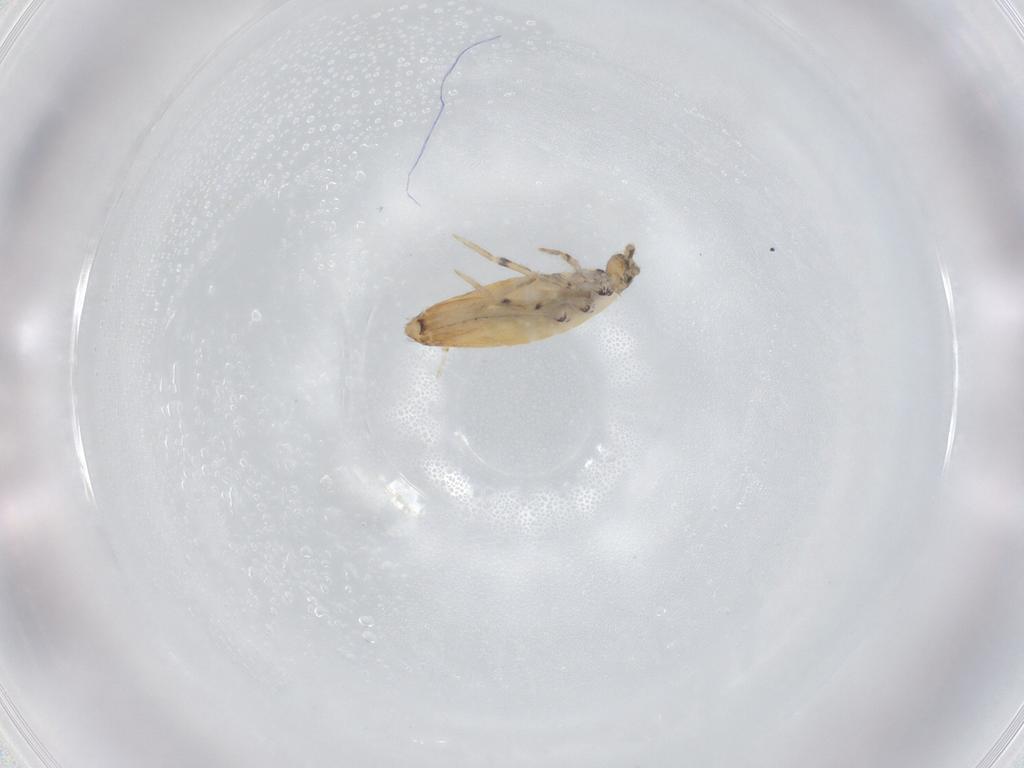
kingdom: Animalia
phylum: Arthropoda
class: Collembola
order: Entomobryomorpha
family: Entomobryidae
